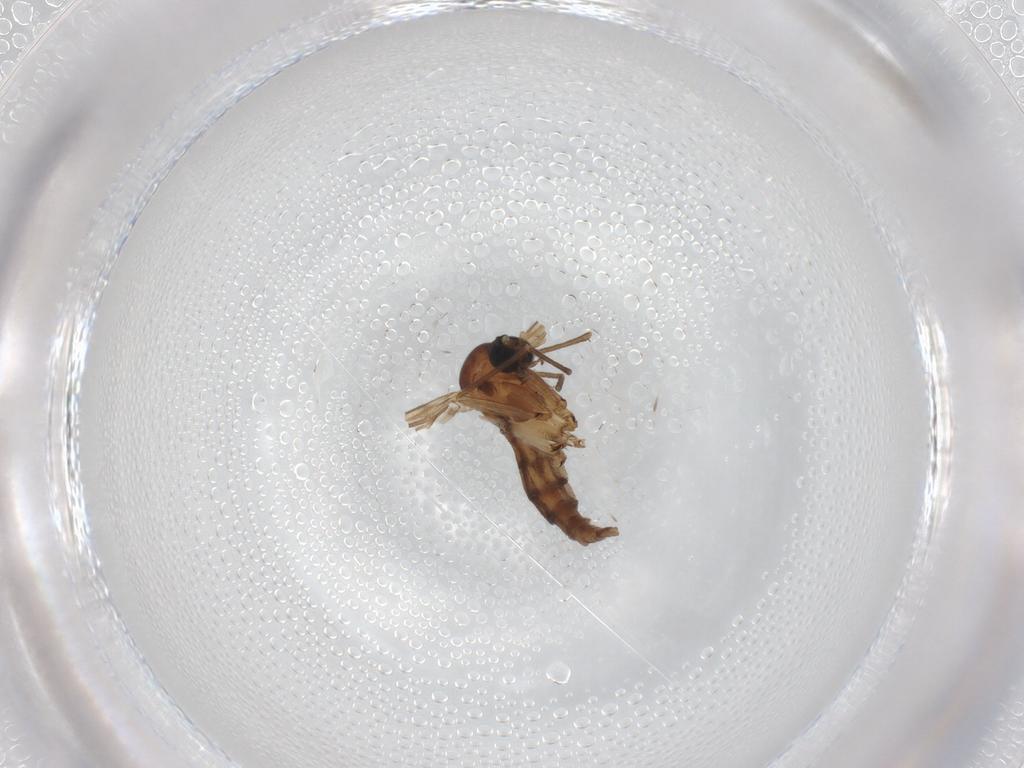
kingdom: Animalia
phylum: Arthropoda
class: Insecta
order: Diptera
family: Sciaridae
